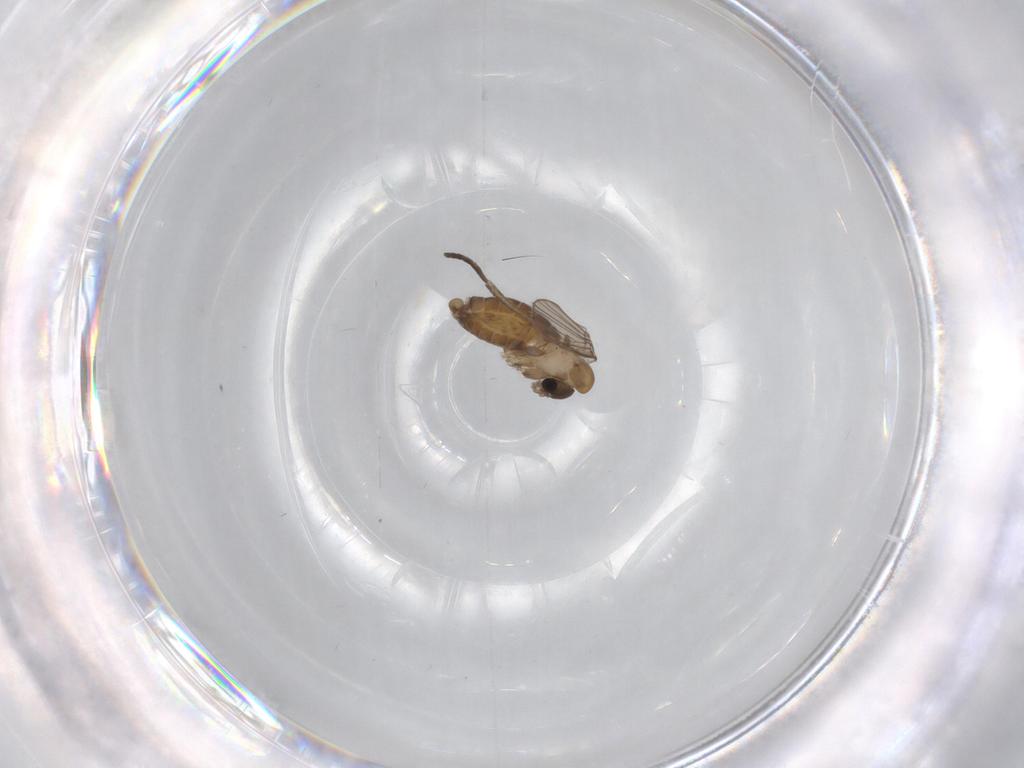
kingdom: Animalia
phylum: Arthropoda
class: Insecta
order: Diptera
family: Psychodidae
